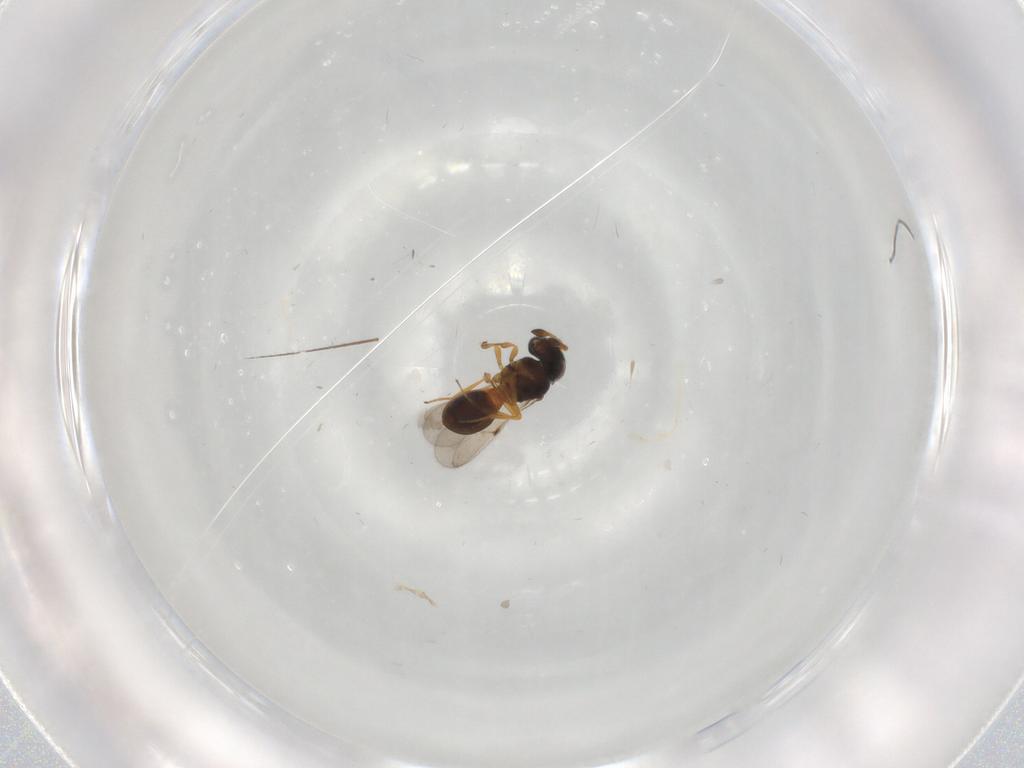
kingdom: Animalia
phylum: Arthropoda
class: Insecta
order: Hymenoptera
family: Scelionidae
